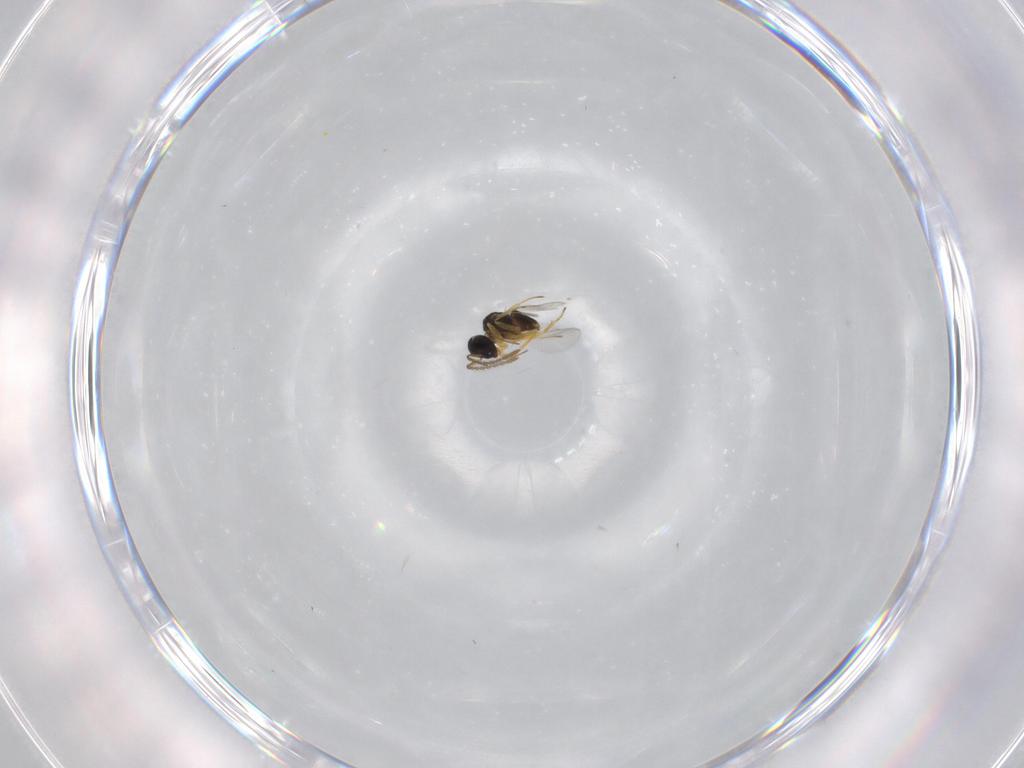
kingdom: Animalia
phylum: Arthropoda
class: Insecta
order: Hymenoptera
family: Encyrtidae
